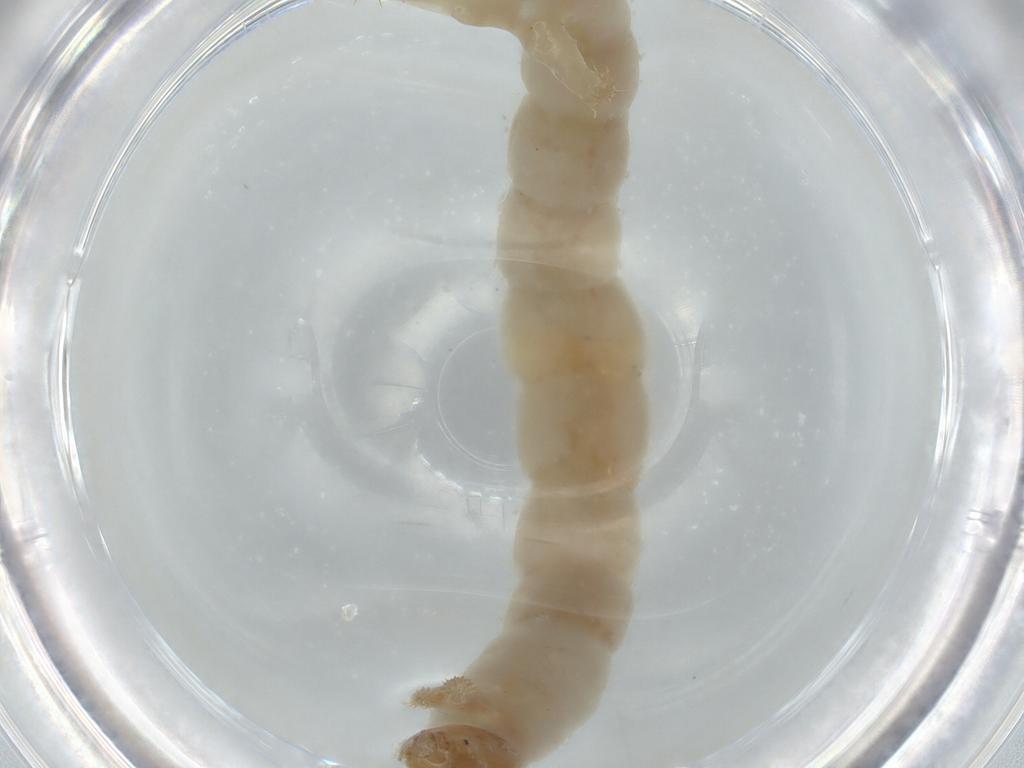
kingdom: Animalia
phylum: Arthropoda
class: Insecta
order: Diptera
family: Chironomidae
